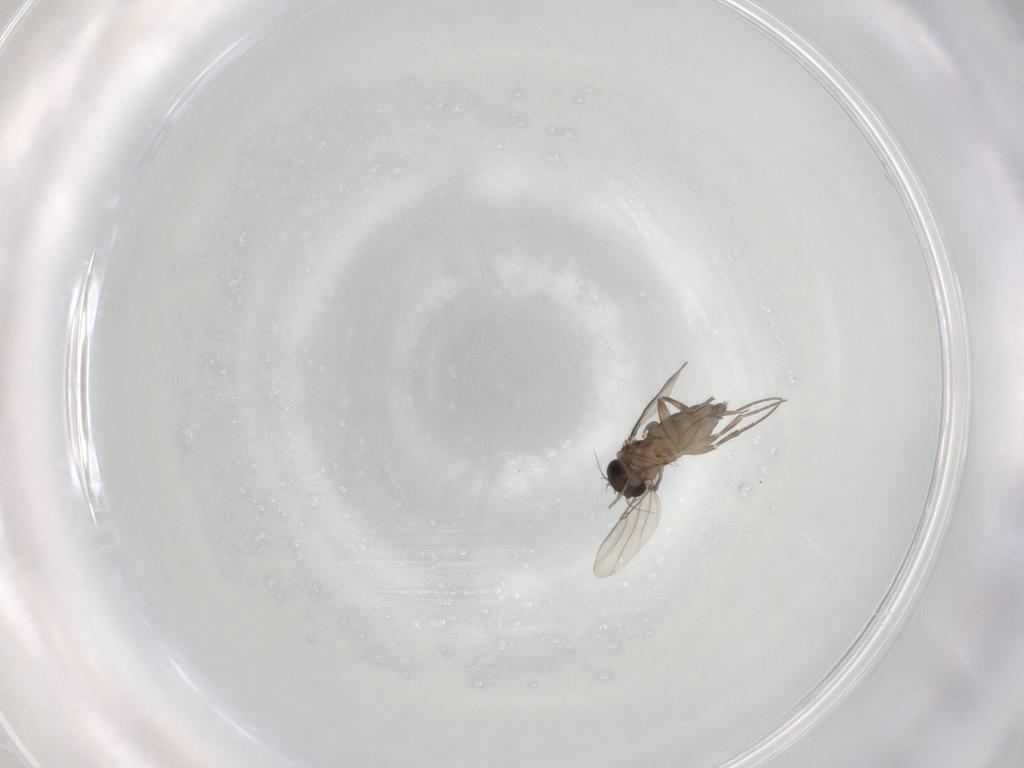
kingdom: Animalia
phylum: Arthropoda
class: Insecta
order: Diptera
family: Phoridae
